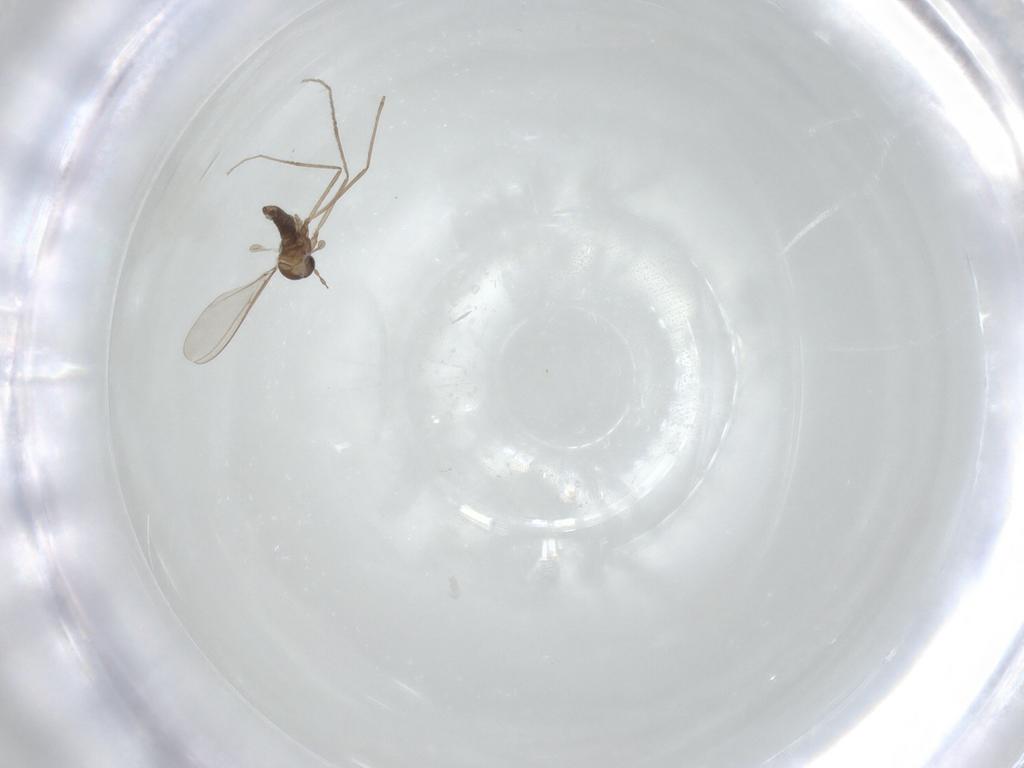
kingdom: Animalia
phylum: Arthropoda
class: Insecta
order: Diptera
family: Cecidomyiidae
